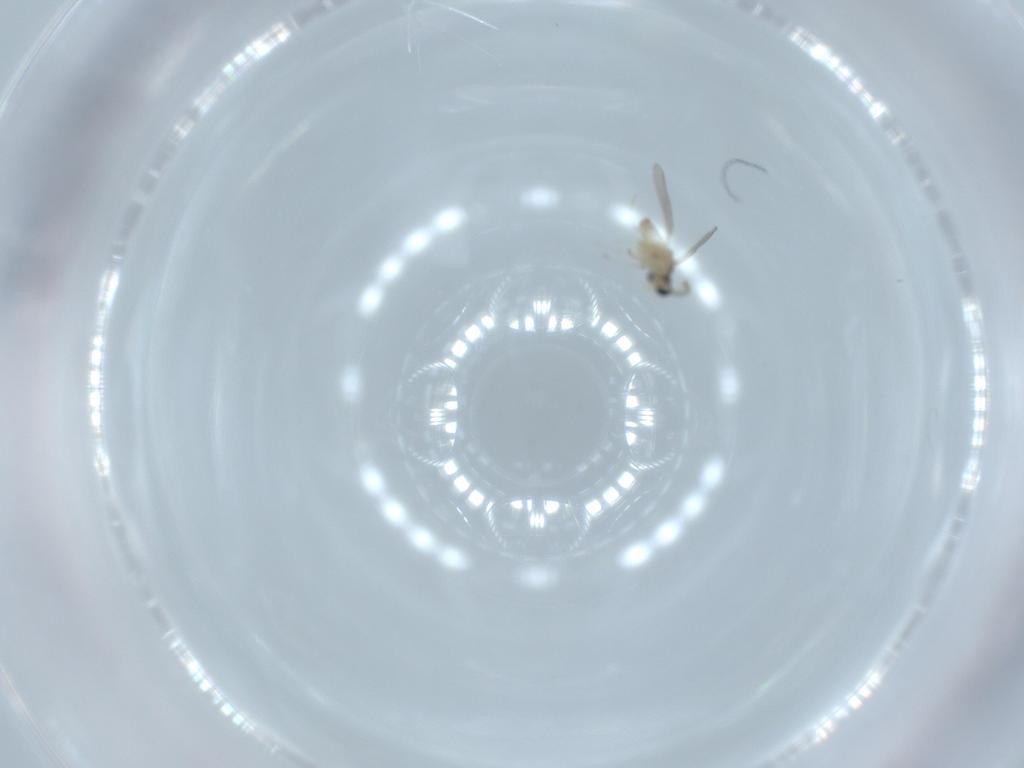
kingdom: Animalia
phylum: Arthropoda
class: Insecta
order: Diptera
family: Cecidomyiidae
